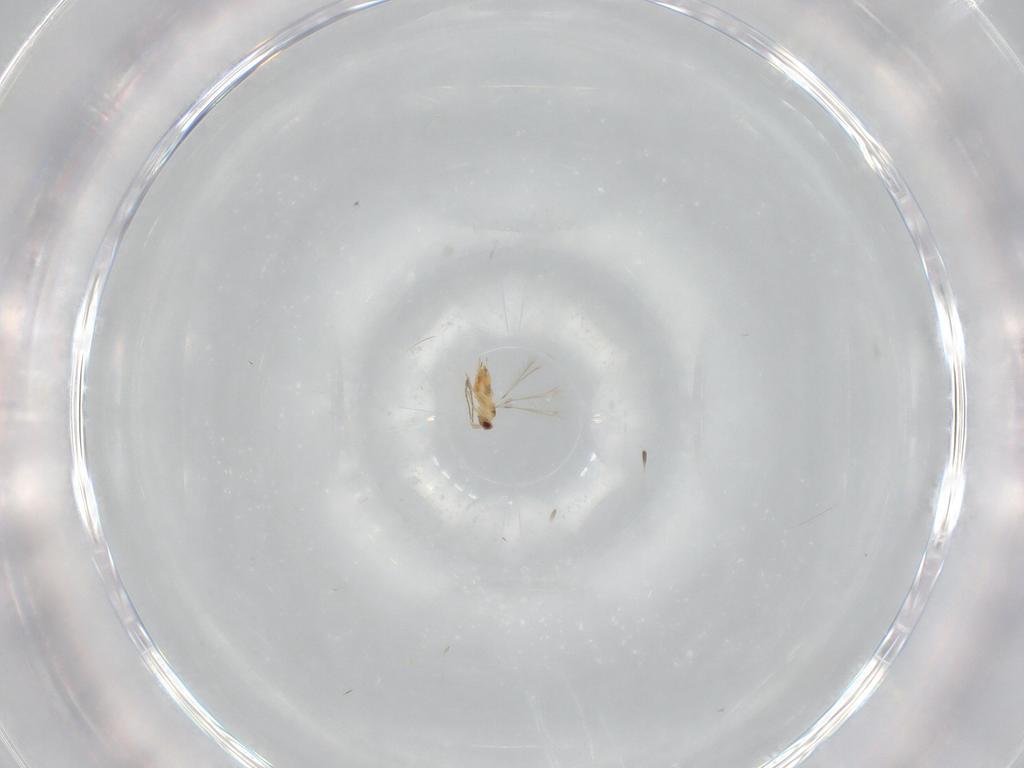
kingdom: Animalia
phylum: Arthropoda
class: Insecta
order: Hymenoptera
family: Mymaridae
